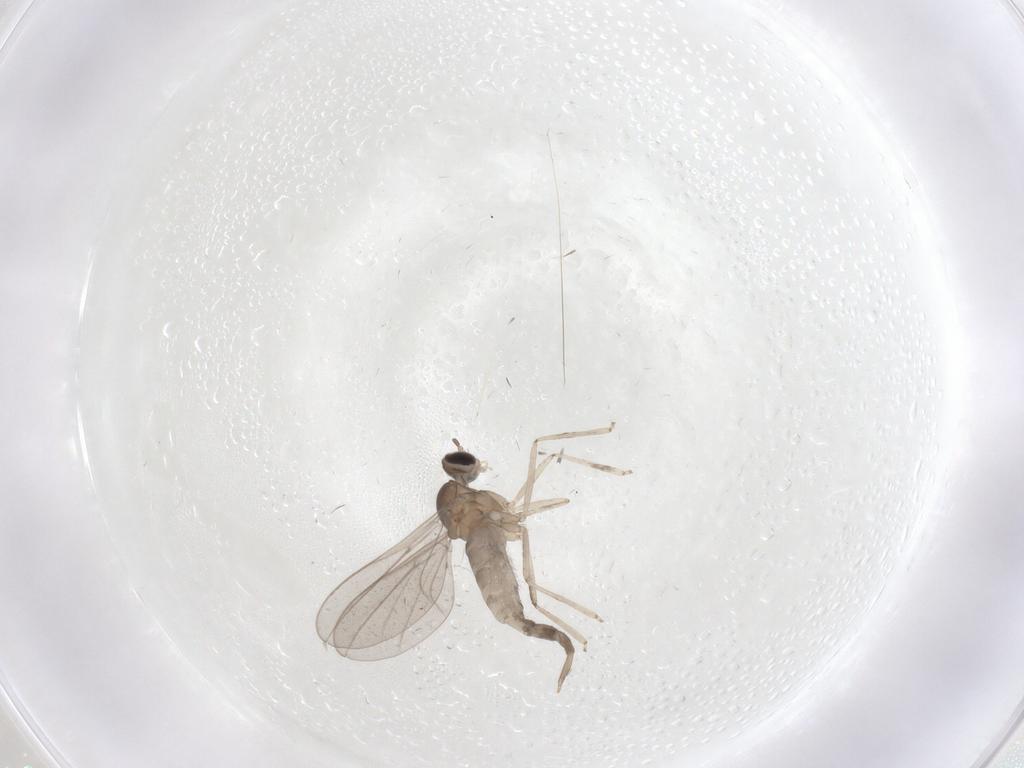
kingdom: Animalia
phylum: Arthropoda
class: Insecta
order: Diptera
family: Cecidomyiidae
